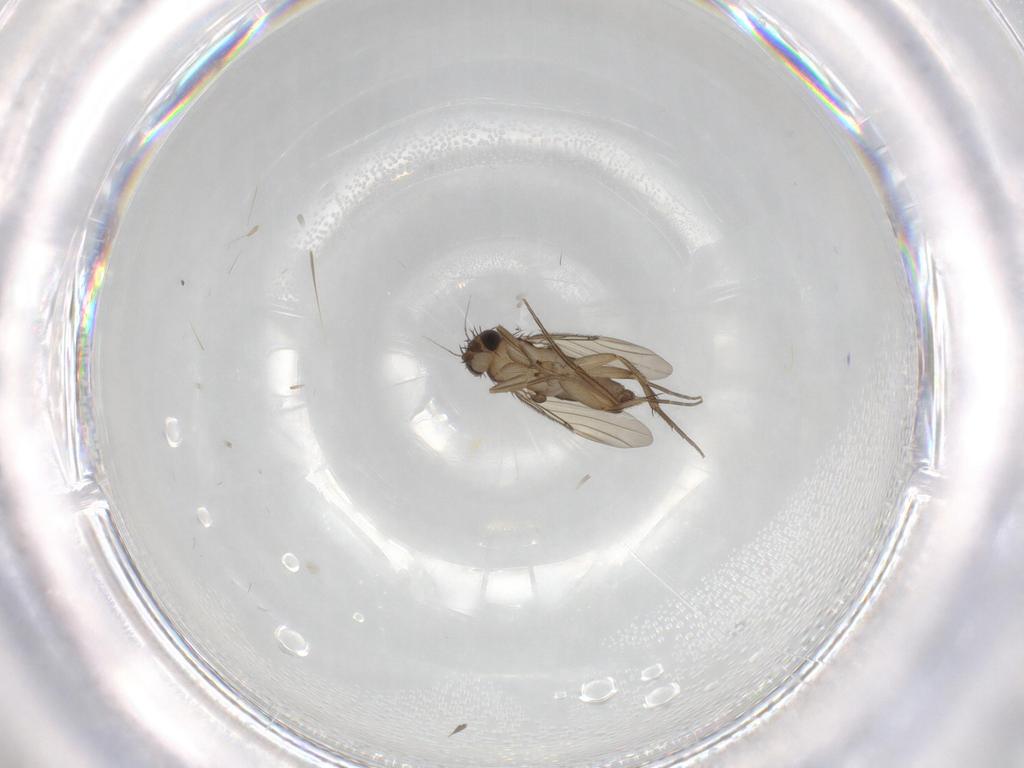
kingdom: Animalia
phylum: Arthropoda
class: Insecta
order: Diptera
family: Phoridae
